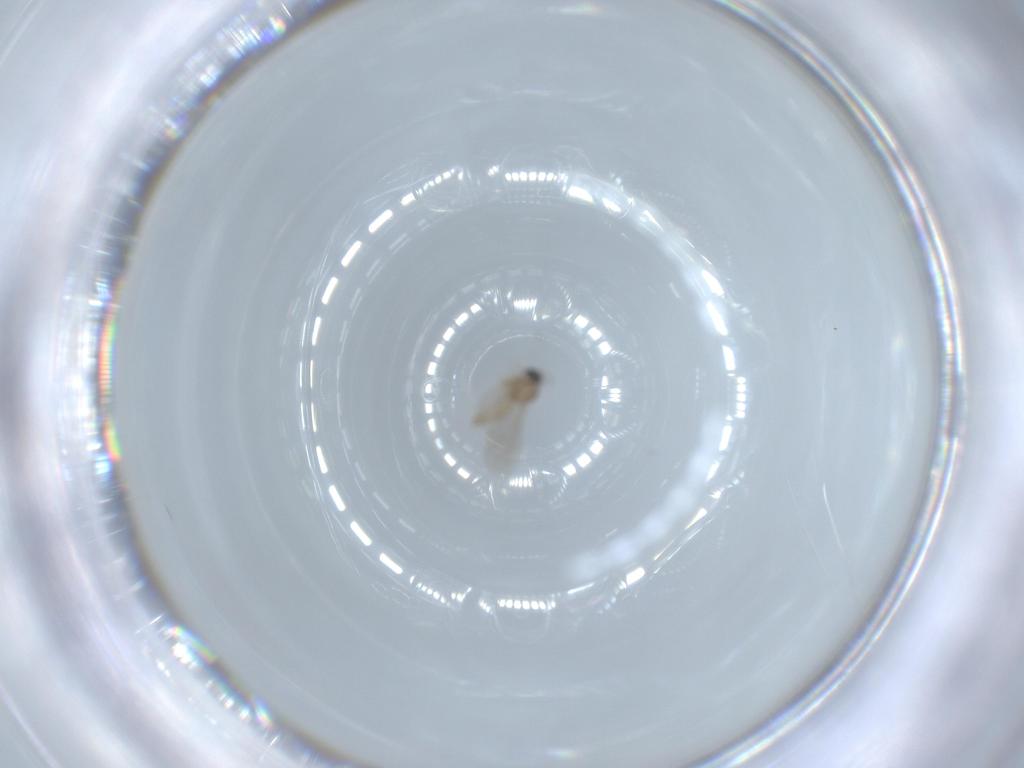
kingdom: Animalia
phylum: Arthropoda
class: Insecta
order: Diptera
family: Cecidomyiidae
